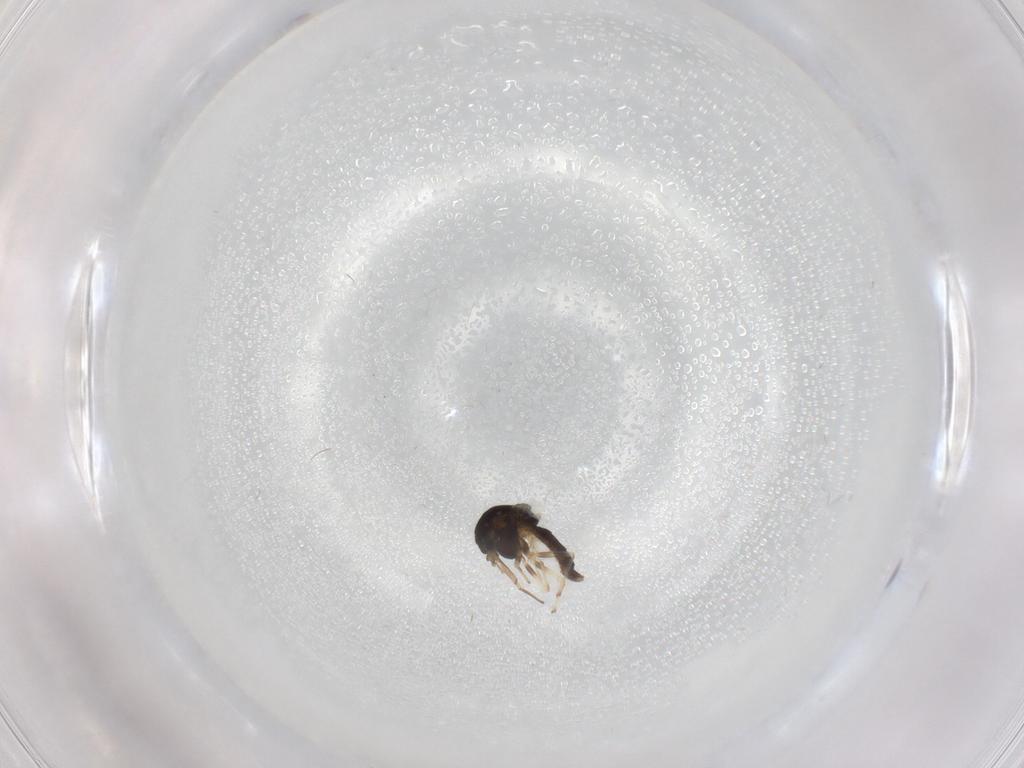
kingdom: Animalia
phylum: Arthropoda
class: Insecta
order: Diptera
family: Chironomidae
